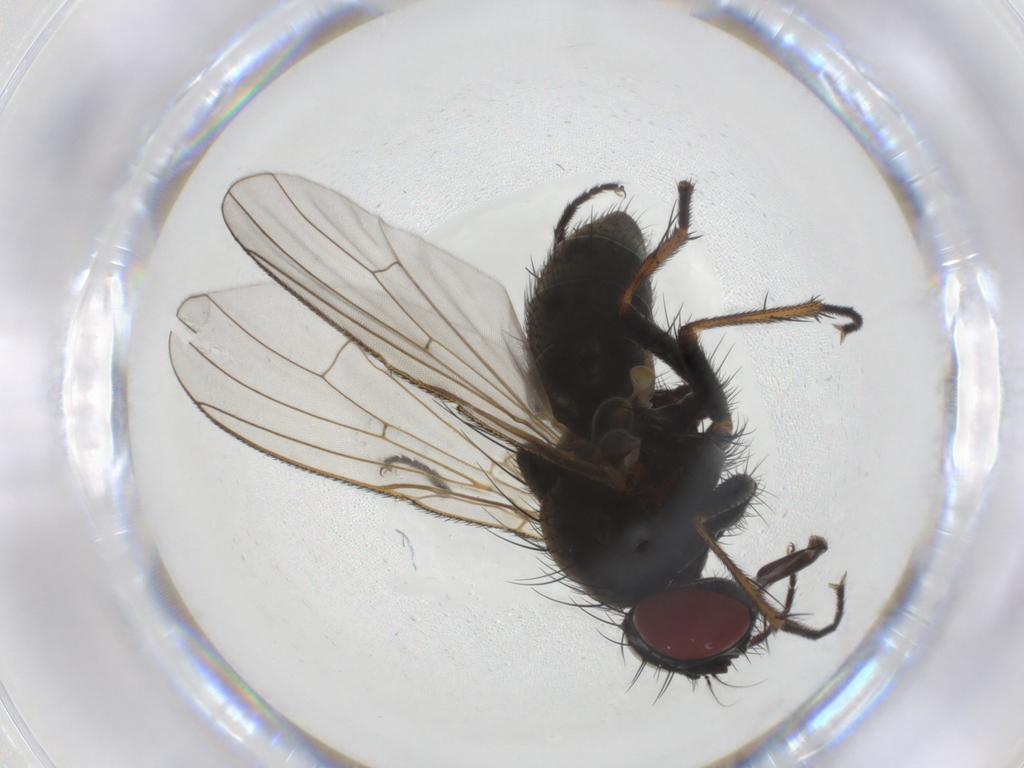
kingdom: Animalia
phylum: Arthropoda
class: Insecta
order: Diptera
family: Muscidae
